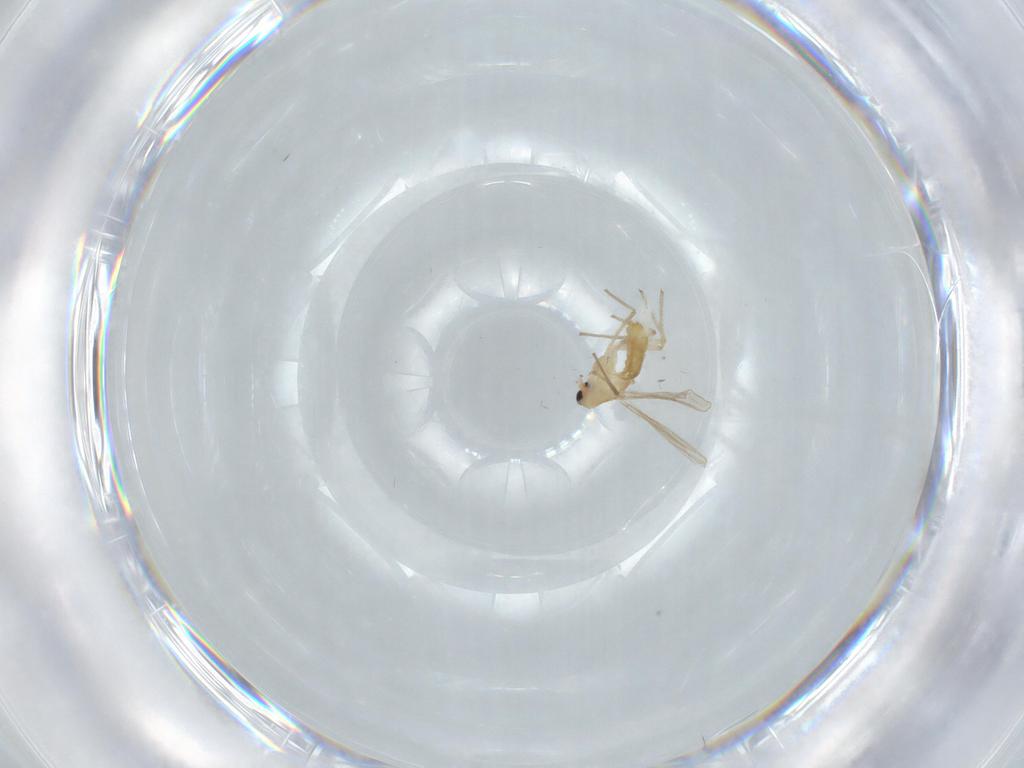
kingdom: Animalia
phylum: Arthropoda
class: Insecta
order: Diptera
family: Chironomidae
